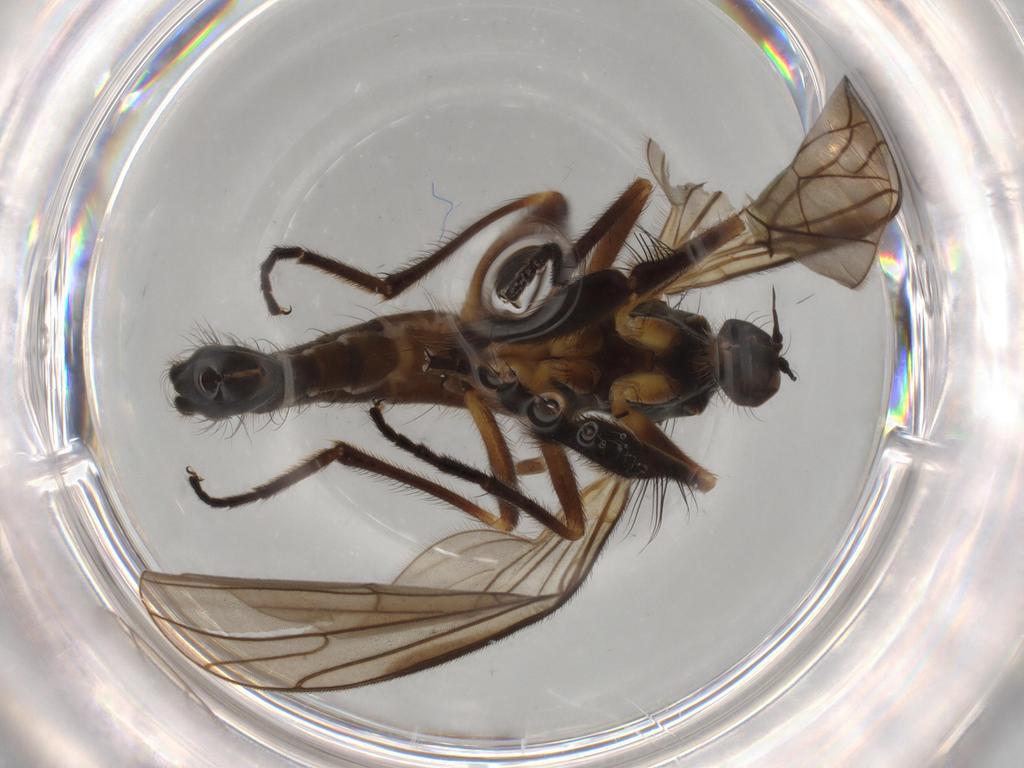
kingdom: Animalia
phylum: Arthropoda
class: Insecta
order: Diptera
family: Empididae
